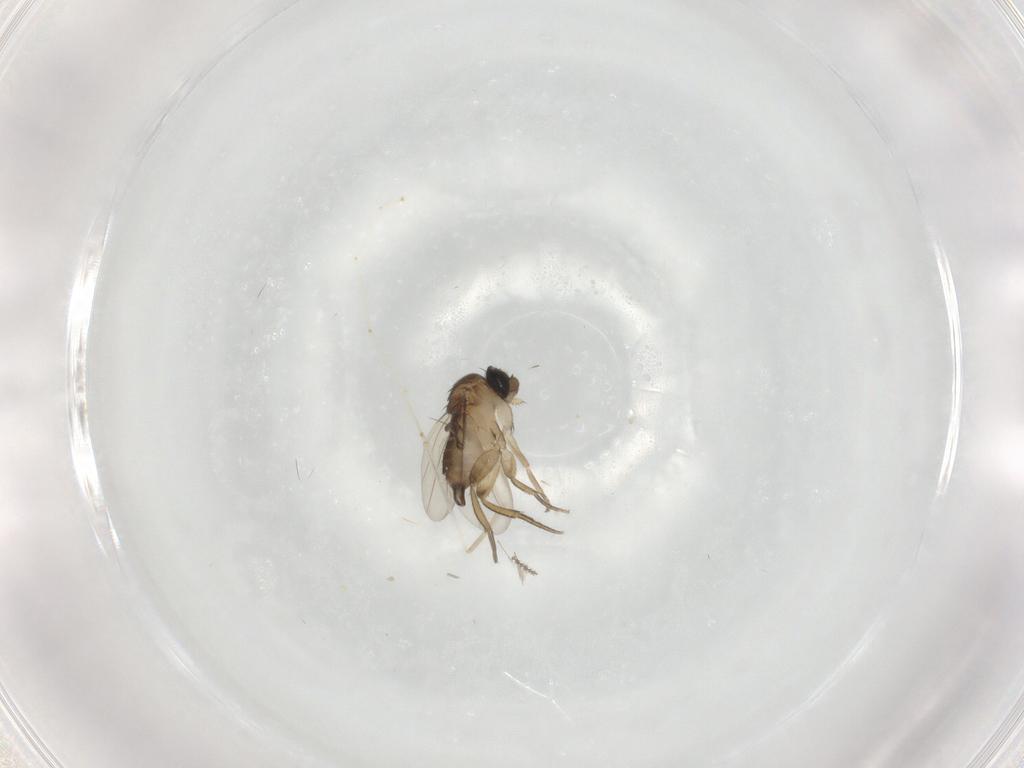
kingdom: Animalia
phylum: Arthropoda
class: Insecta
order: Diptera
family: Cecidomyiidae
